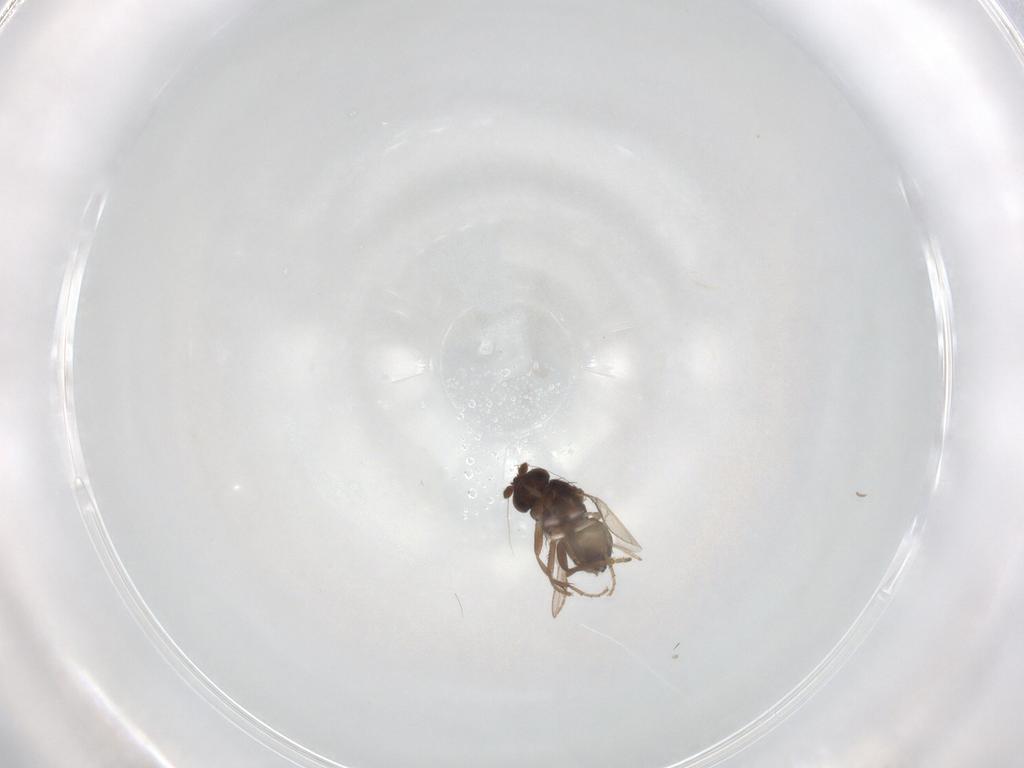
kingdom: Animalia
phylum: Arthropoda
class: Insecta
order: Diptera
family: Sphaeroceridae
